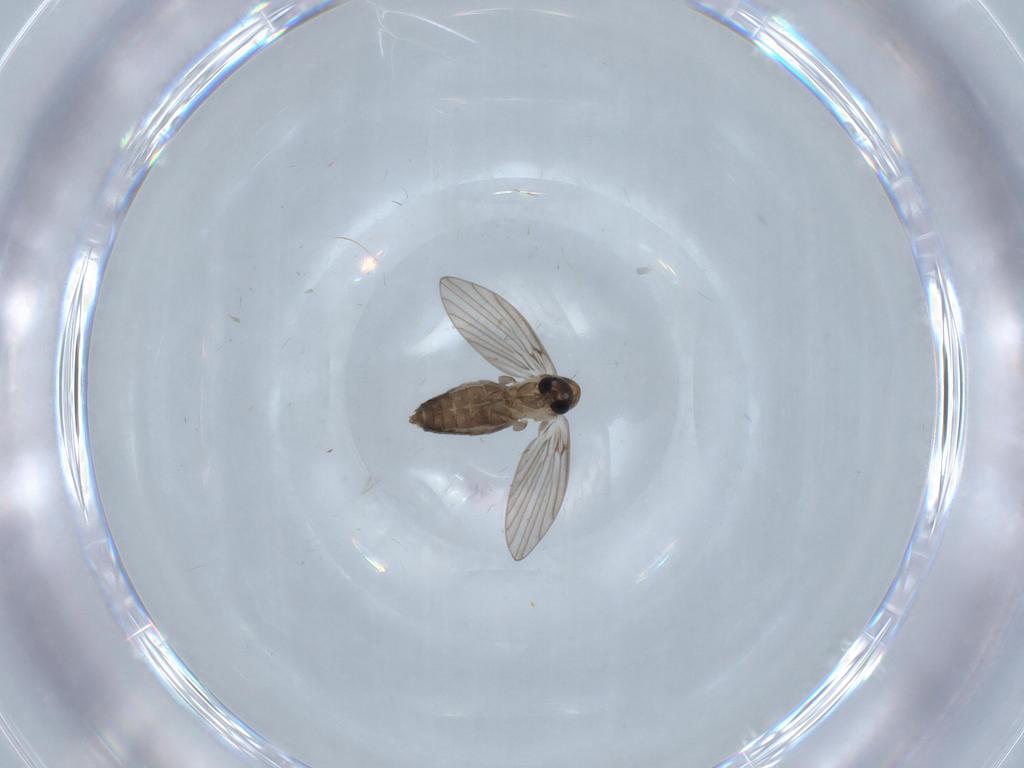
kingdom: Animalia
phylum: Arthropoda
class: Insecta
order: Diptera
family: Psychodidae
